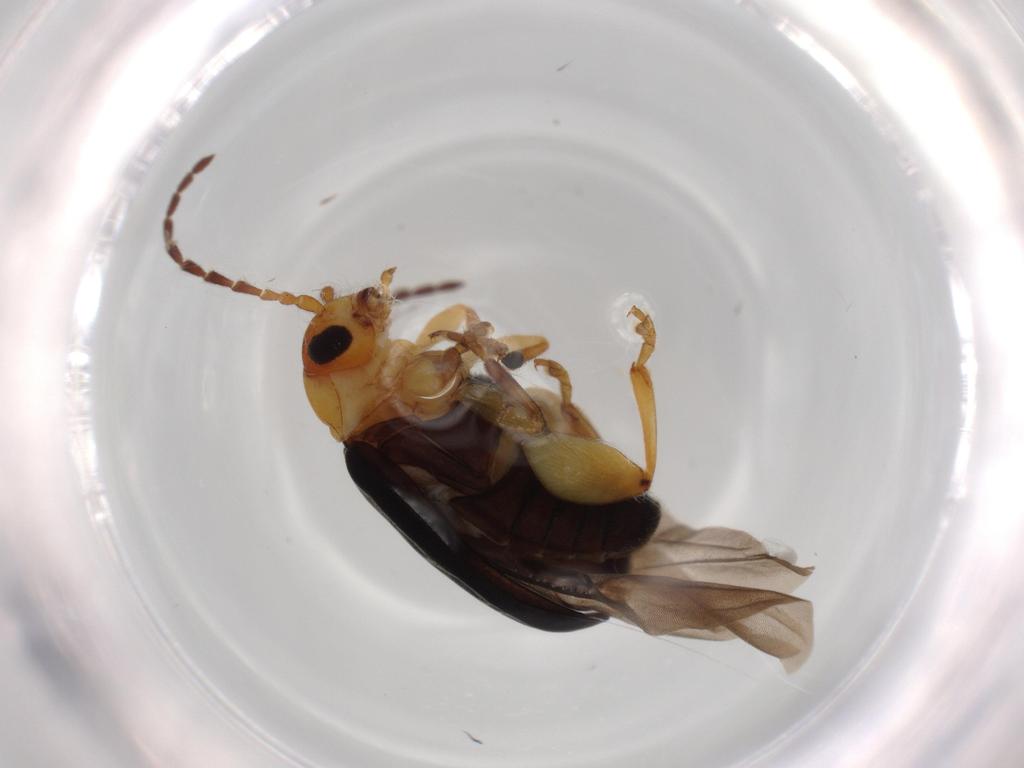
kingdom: Animalia
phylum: Arthropoda
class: Insecta
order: Coleoptera
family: Chrysomelidae
